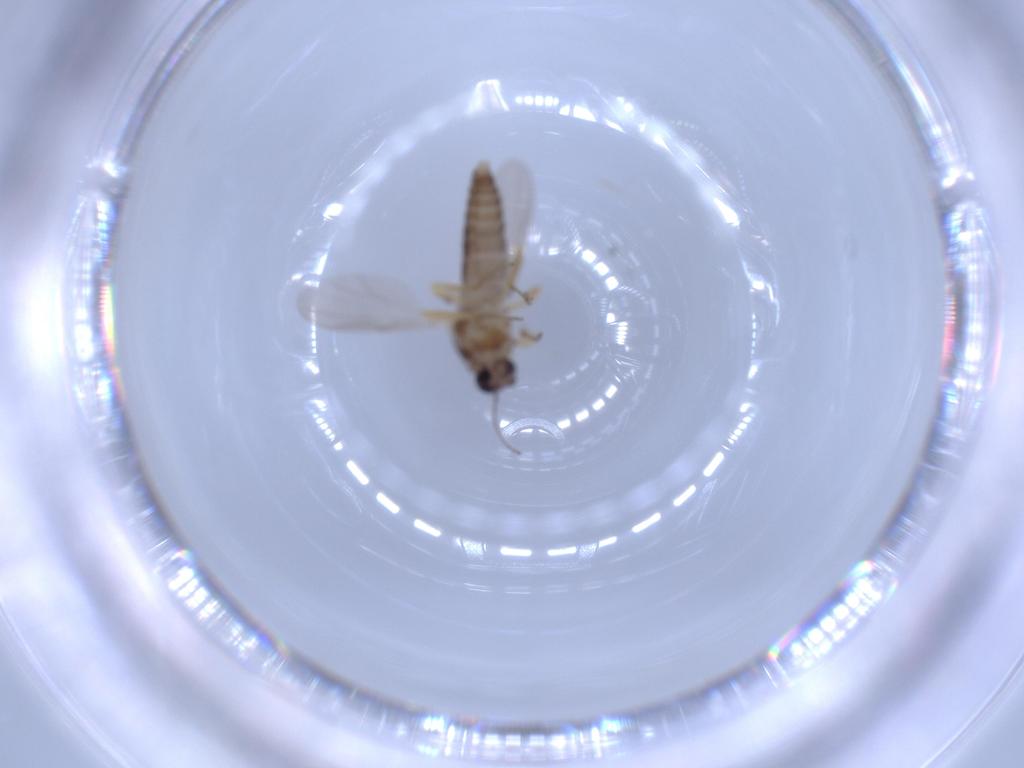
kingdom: Animalia
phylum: Arthropoda
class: Insecta
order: Diptera
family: Ceratopogonidae
